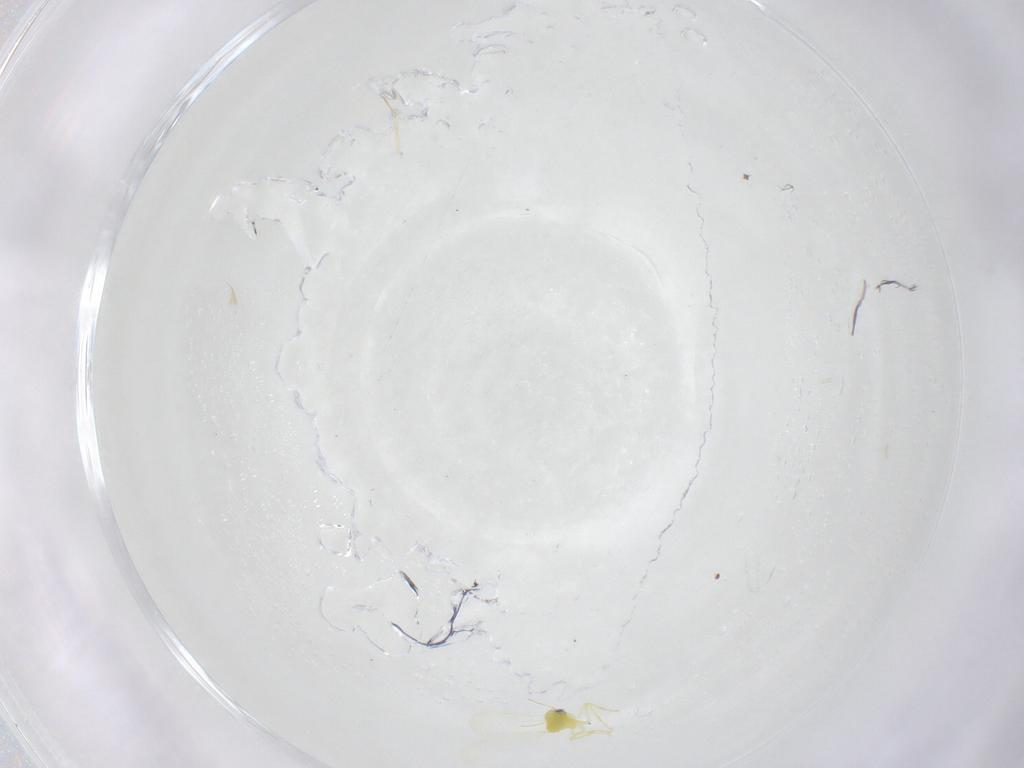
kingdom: Animalia
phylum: Arthropoda
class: Insecta
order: Hemiptera
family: Aleyrodidae
